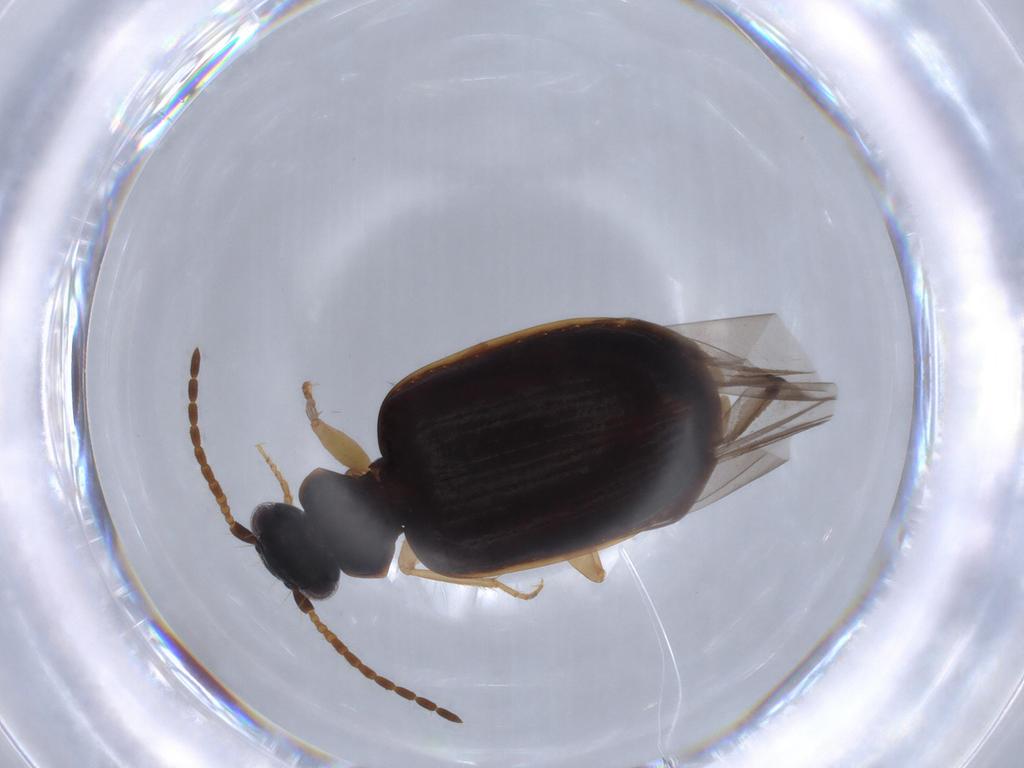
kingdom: Animalia
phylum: Arthropoda
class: Insecta
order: Coleoptera
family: Carabidae
